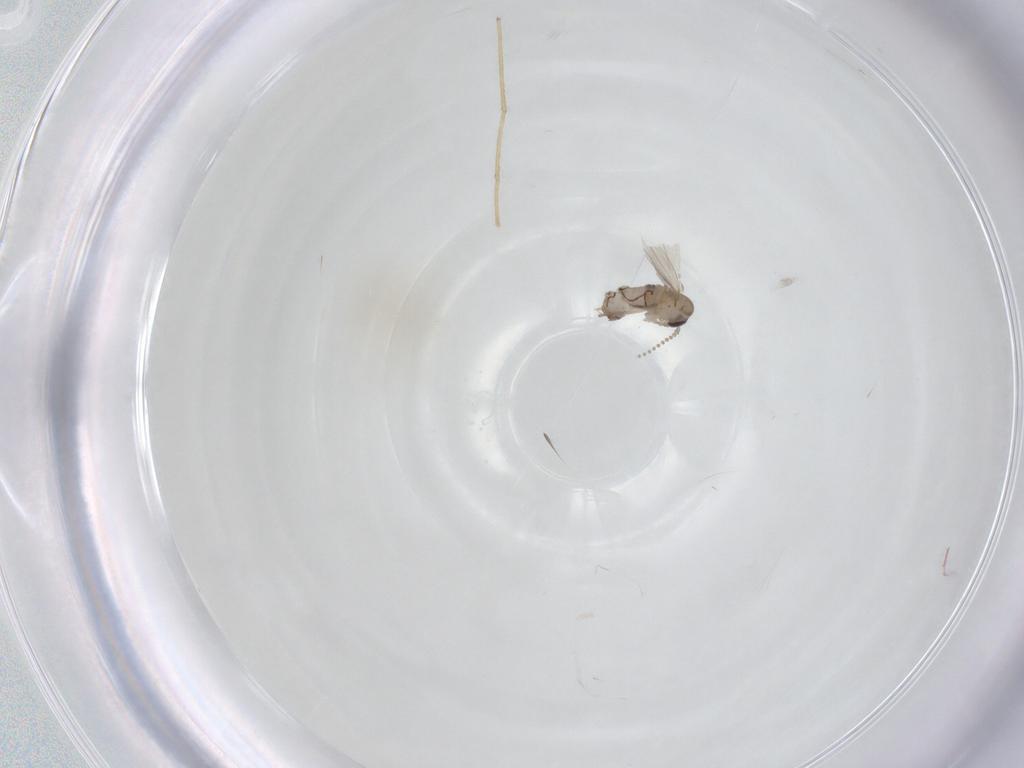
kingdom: Animalia
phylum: Arthropoda
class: Insecta
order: Diptera
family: Psychodidae
